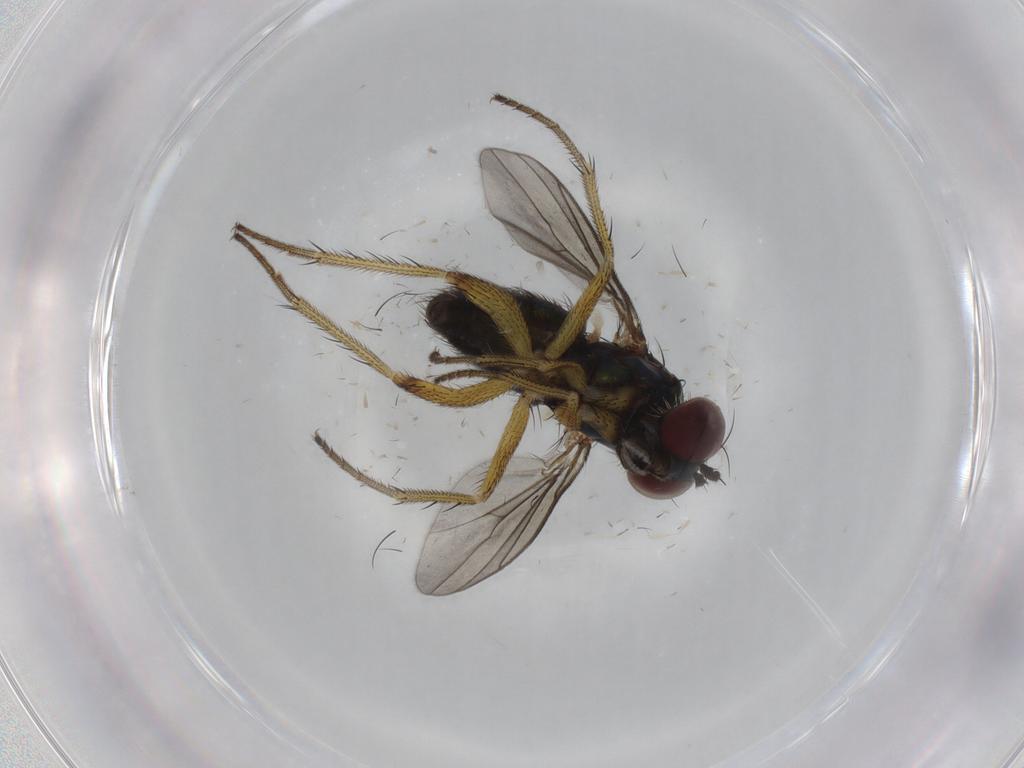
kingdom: Animalia
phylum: Arthropoda
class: Insecta
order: Diptera
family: Dolichopodidae
